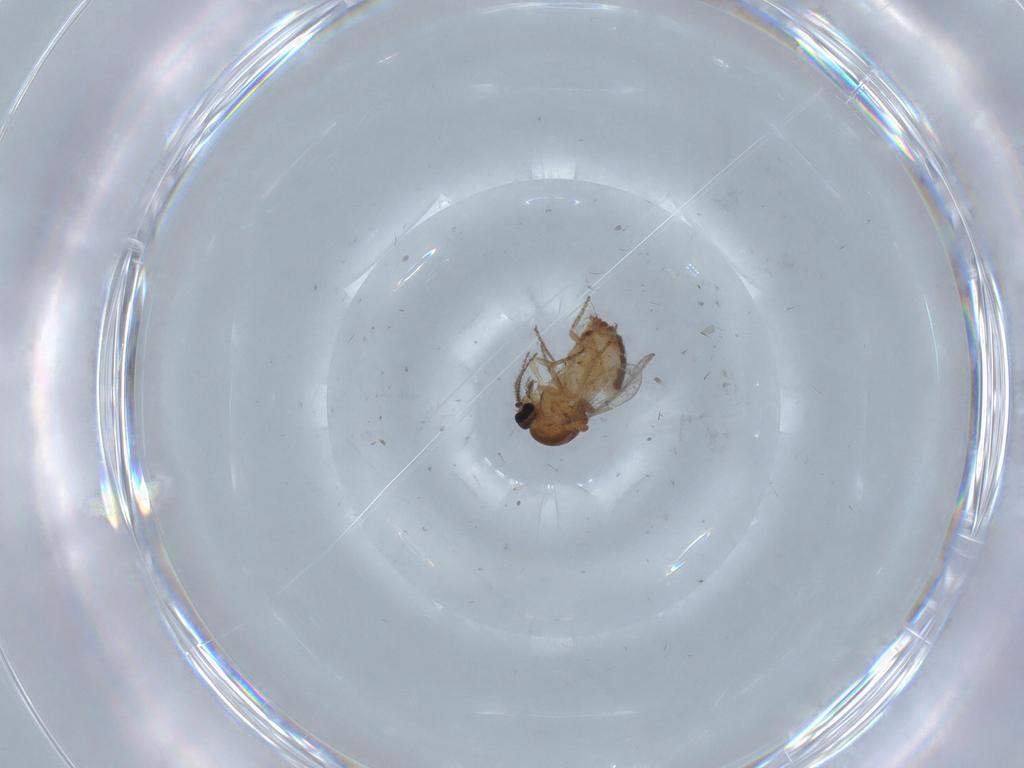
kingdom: Animalia
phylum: Arthropoda
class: Insecta
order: Diptera
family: Ceratopogonidae
